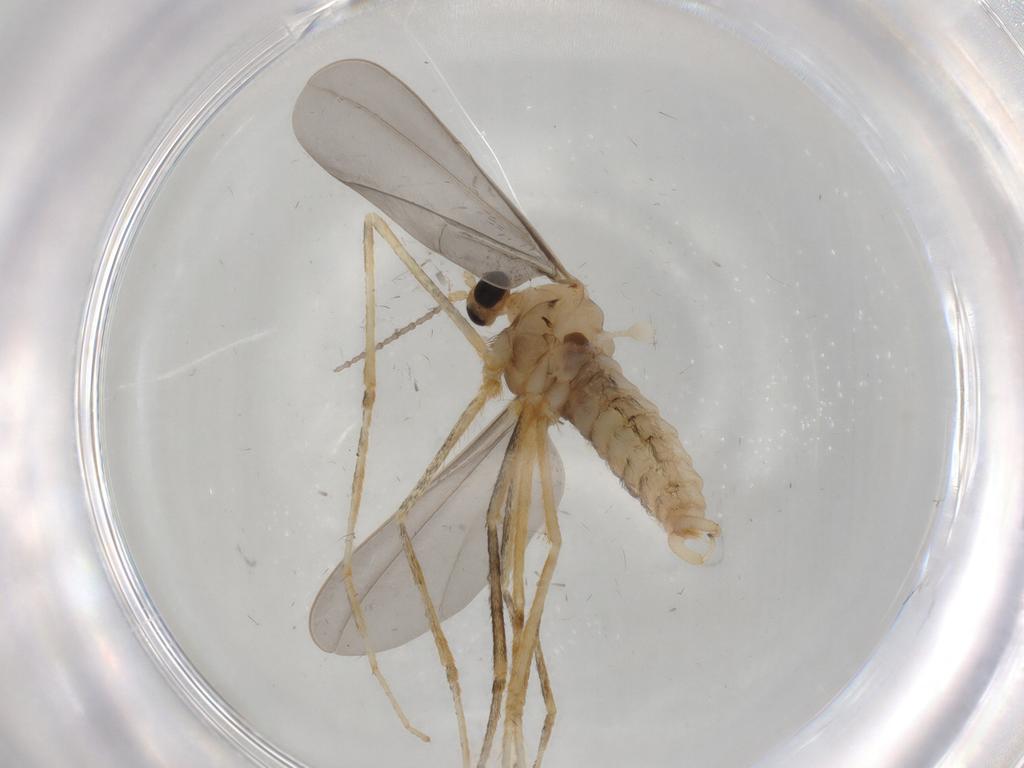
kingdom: Animalia
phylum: Arthropoda
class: Insecta
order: Diptera
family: Cecidomyiidae
